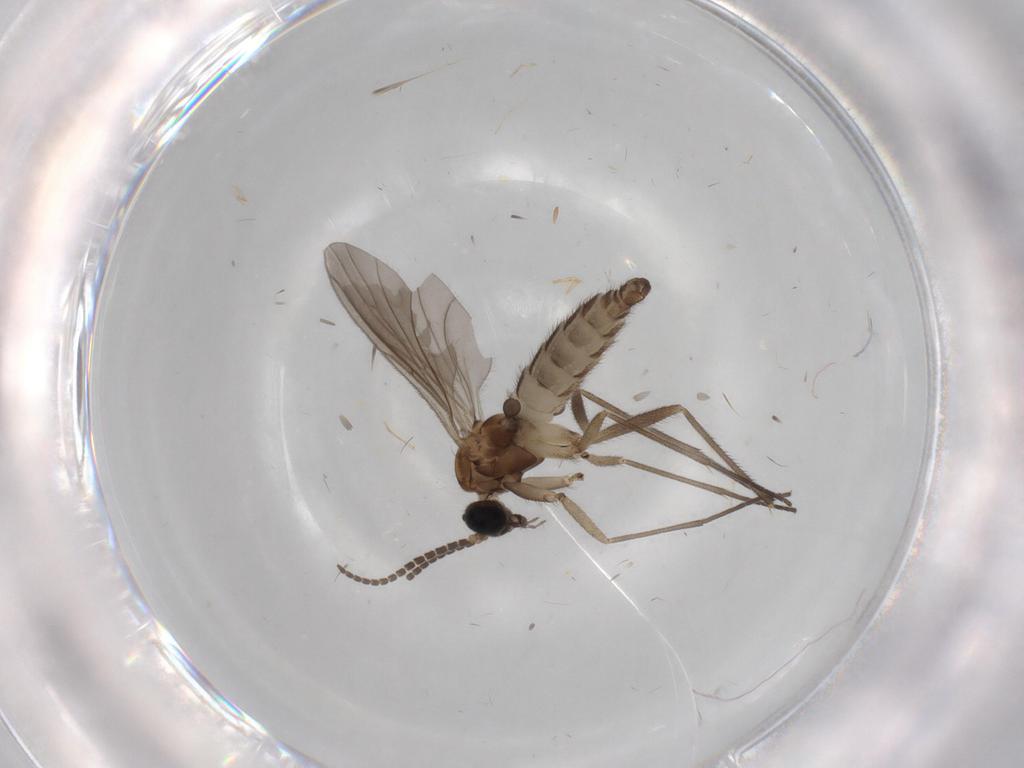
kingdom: Animalia
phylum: Arthropoda
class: Insecta
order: Diptera
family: Sciaridae
